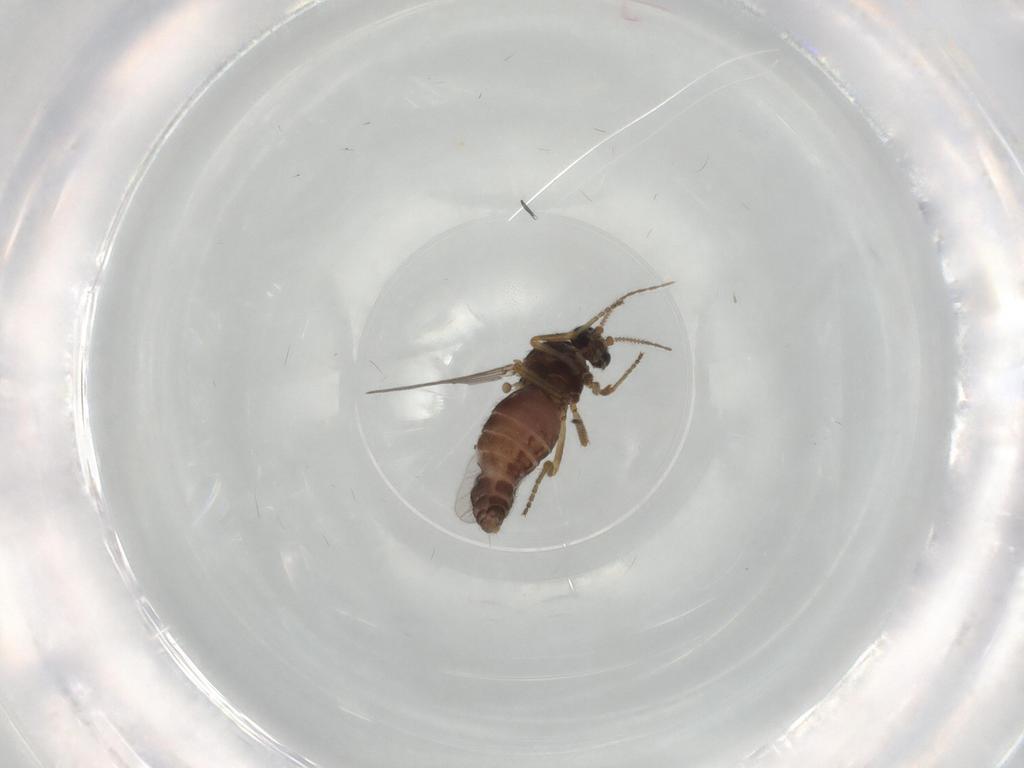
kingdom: Animalia
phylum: Arthropoda
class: Insecta
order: Diptera
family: Ceratopogonidae
